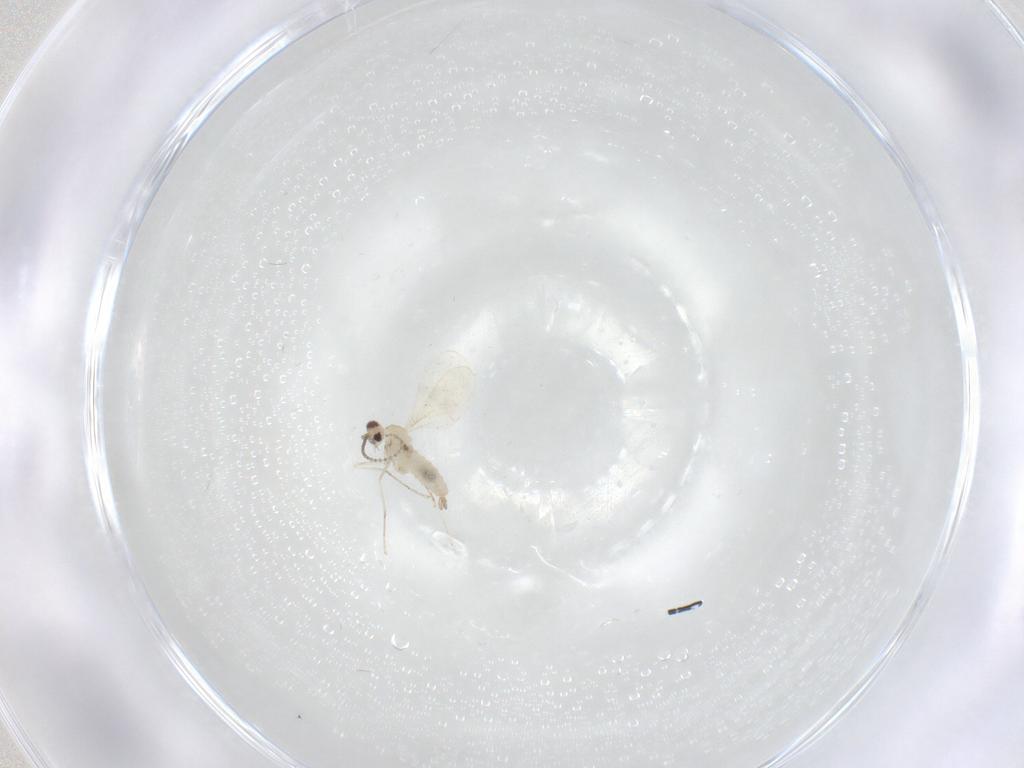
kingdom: Animalia
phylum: Arthropoda
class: Insecta
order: Diptera
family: Cecidomyiidae
